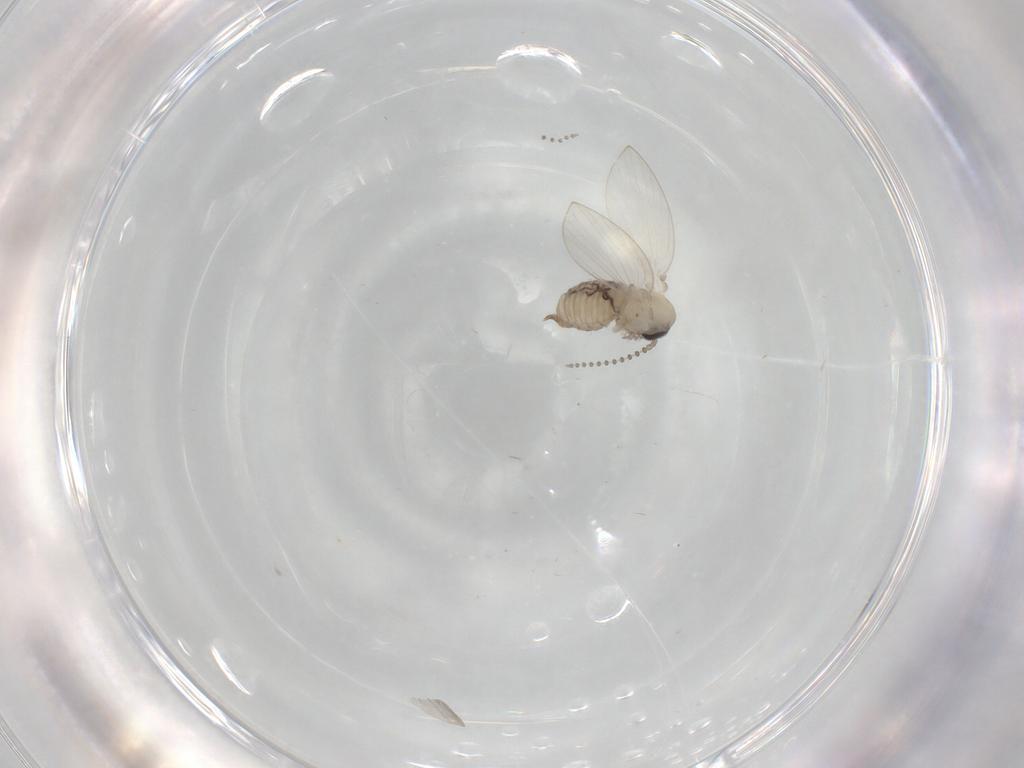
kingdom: Animalia
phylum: Arthropoda
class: Insecta
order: Diptera
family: Psychodidae
